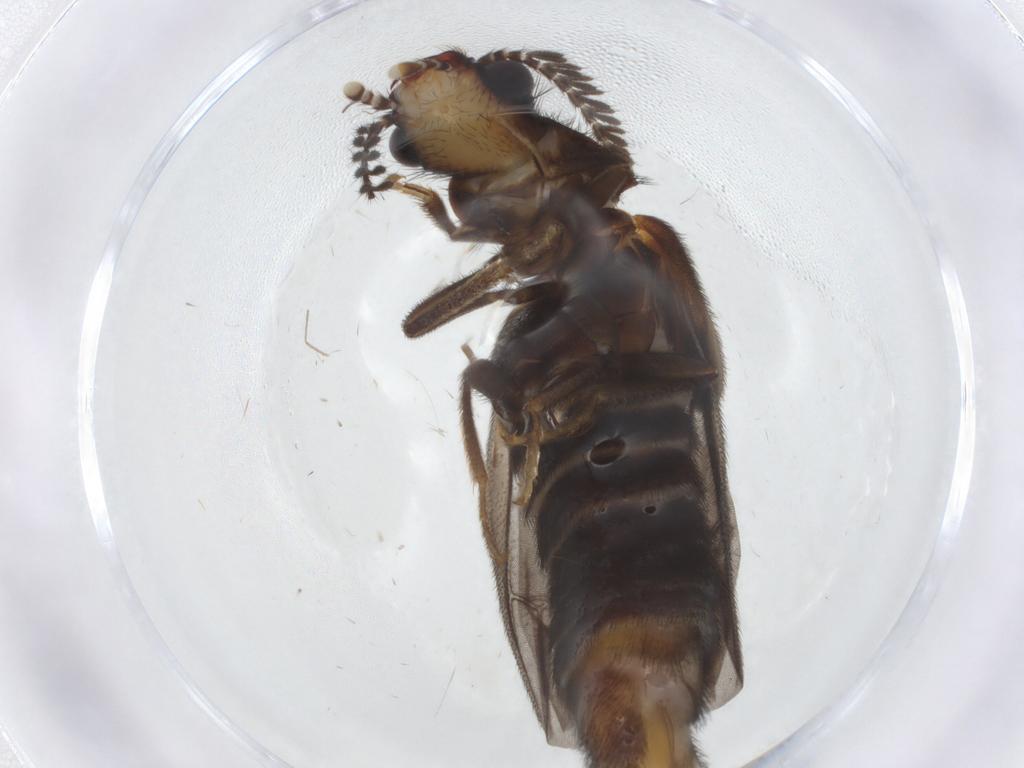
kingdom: Animalia
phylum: Arthropoda
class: Insecta
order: Coleoptera
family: Phengodidae
